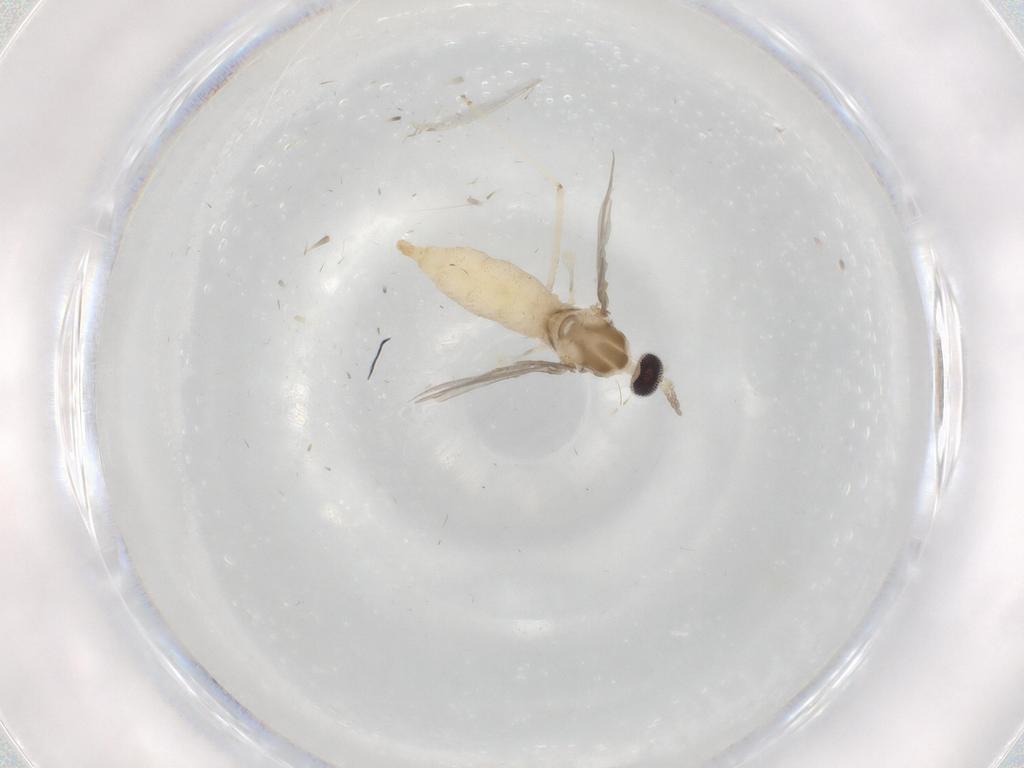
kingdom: Animalia
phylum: Arthropoda
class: Insecta
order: Diptera
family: Cecidomyiidae
